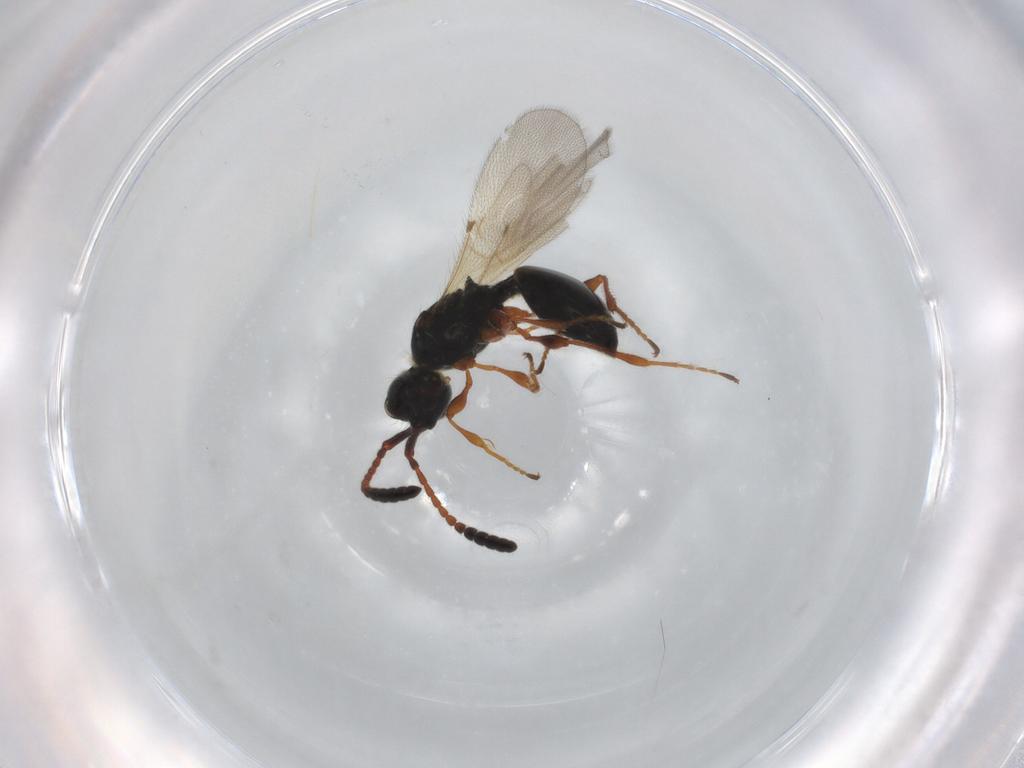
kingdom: Animalia
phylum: Arthropoda
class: Insecta
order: Hymenoptera
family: Diapriidae
